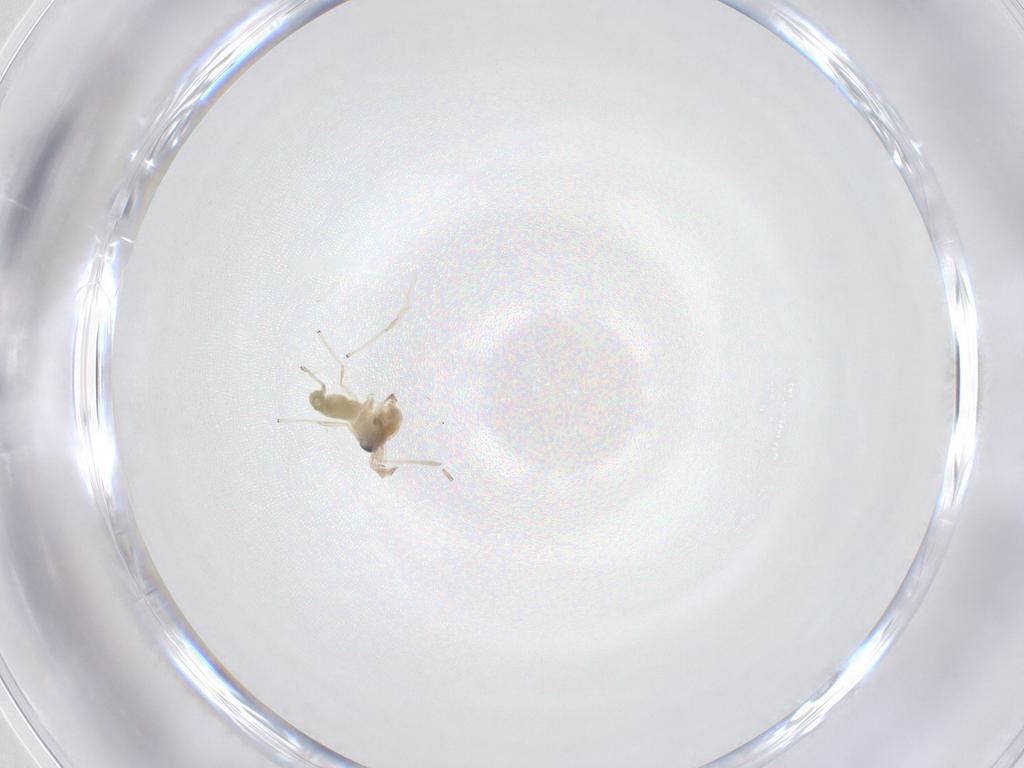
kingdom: Animalia
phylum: Arthropoda
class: Insecta
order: Diptera
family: Chironomidae
